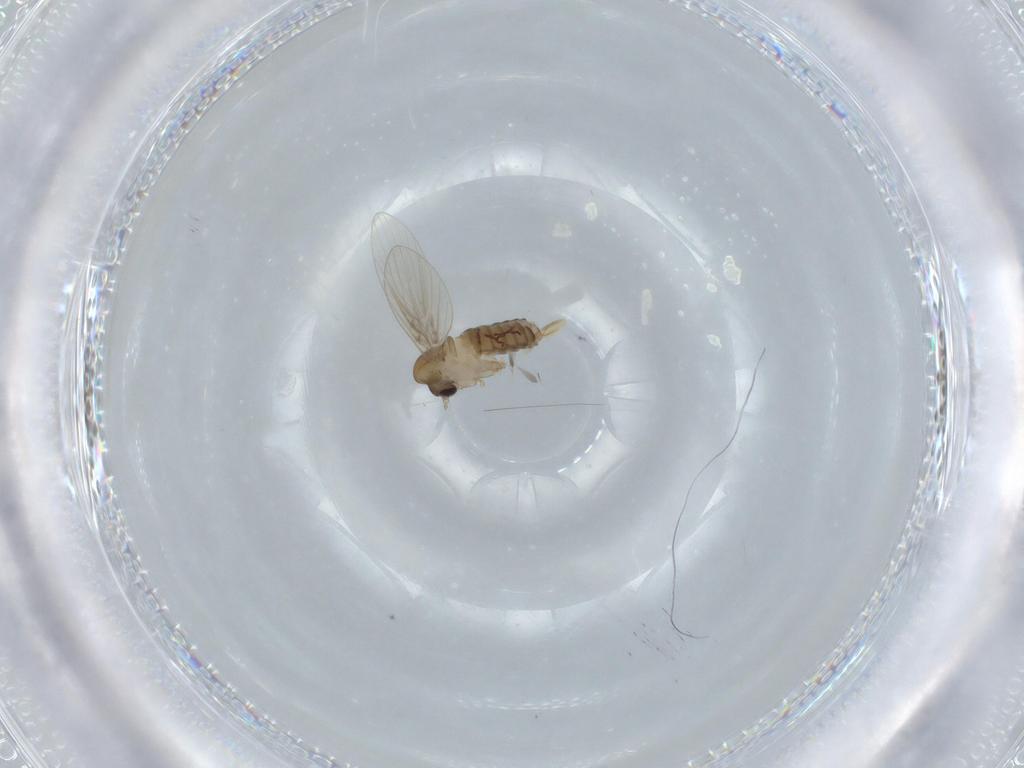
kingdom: Animalia
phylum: Arthropoda
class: Insecta
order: Diptera
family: Psychodidae
